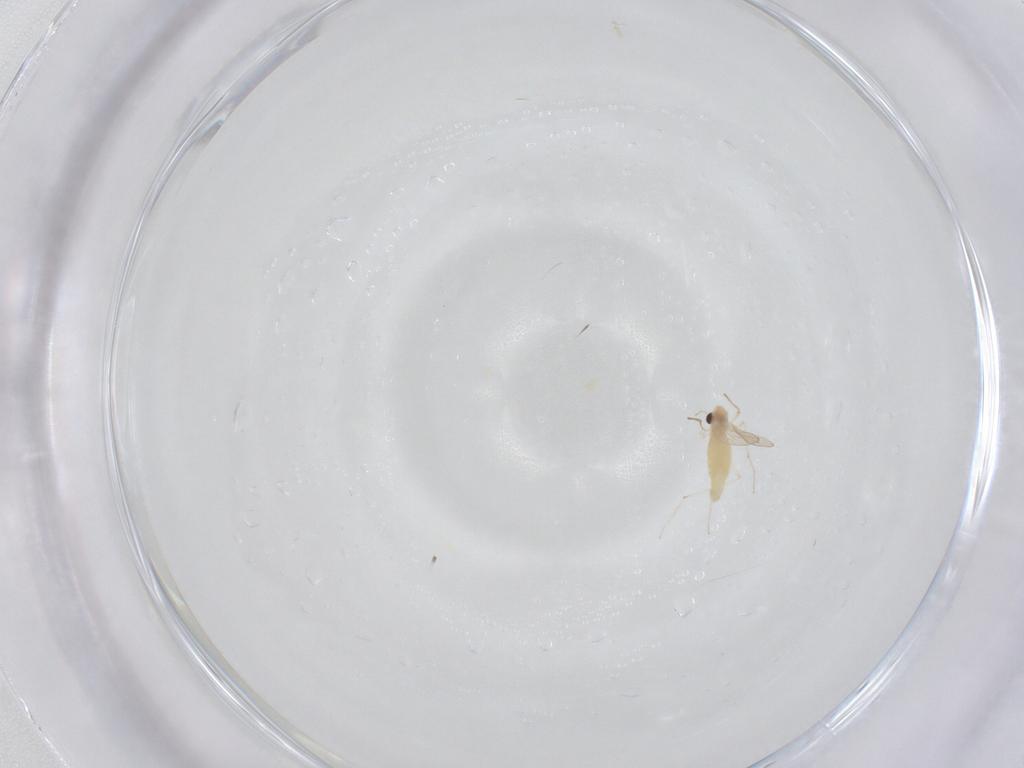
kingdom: Animalia
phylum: Arthropoda
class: Insecta
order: Diptera
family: Chironomidae
